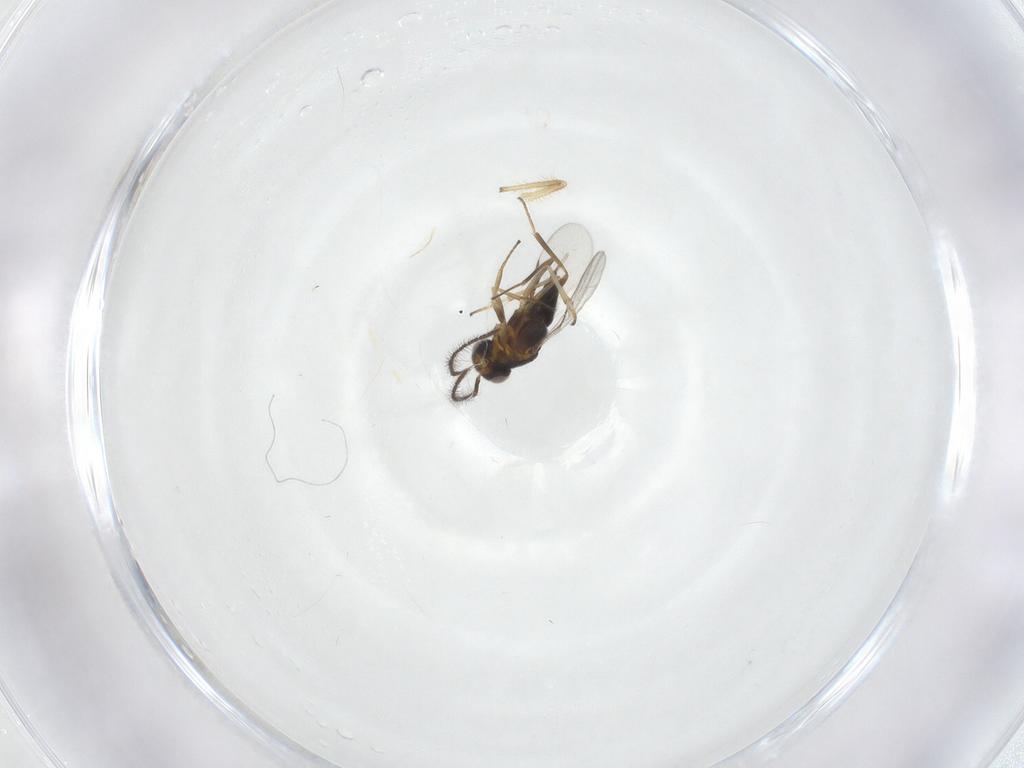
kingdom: Animalia
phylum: Arthropoda
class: Insecta
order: Hymenoptera
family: Encyrtidae
